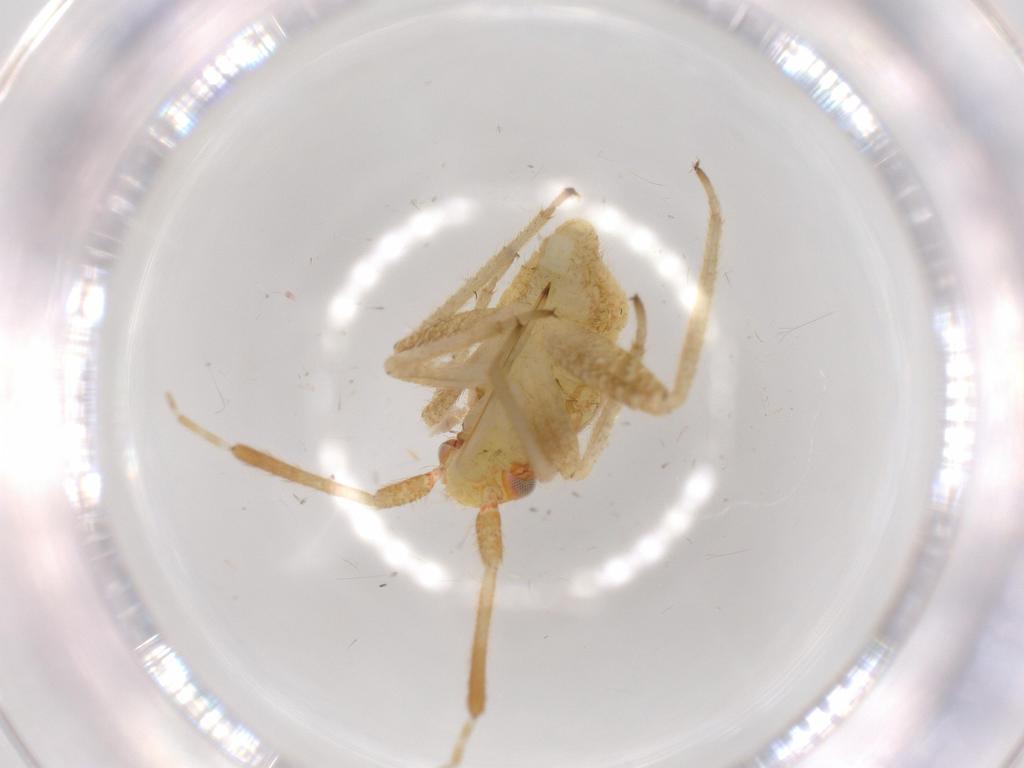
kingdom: Animalia
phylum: Arthropoda
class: Insecta
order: Hemiptera
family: Miridae
